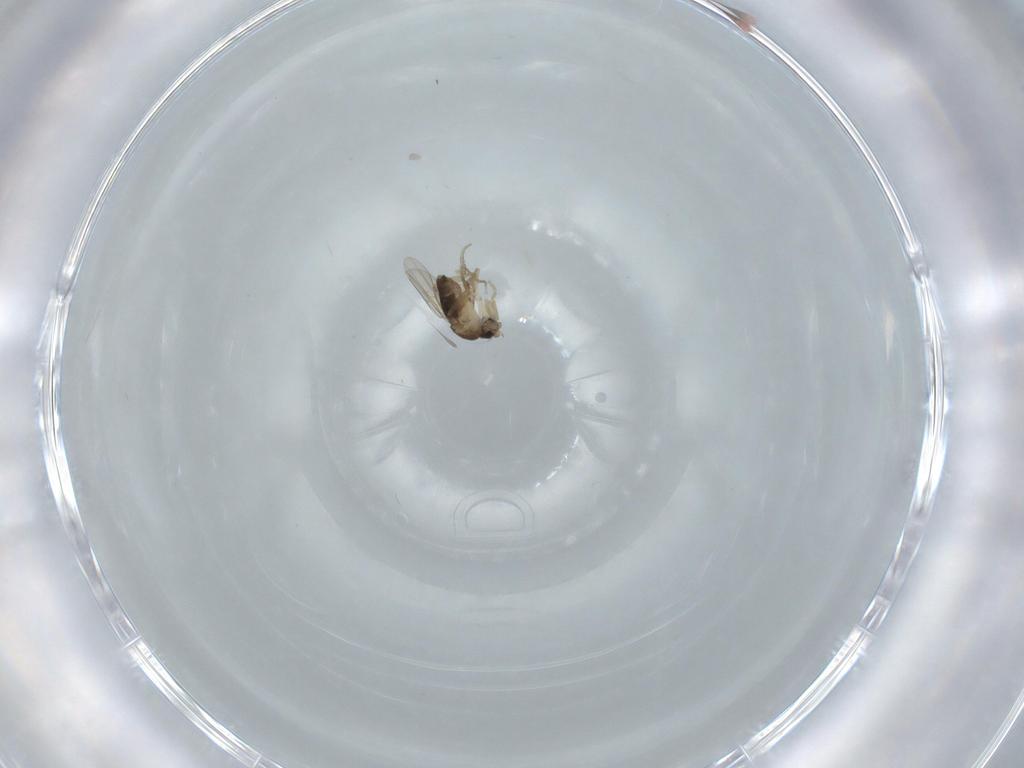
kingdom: Animalia
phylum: Arthropoda
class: Insecta
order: Diptera
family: Phoridae
